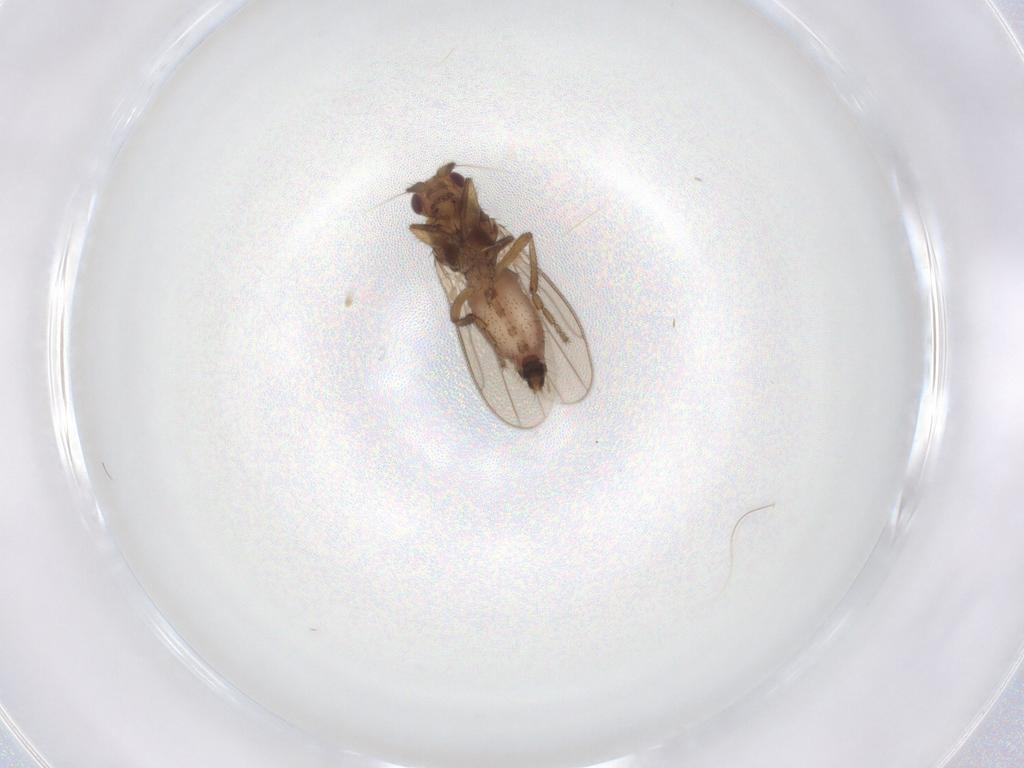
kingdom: Animalia
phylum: Arthropoda
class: Insecta
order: Diptera
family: Sphaeroceridae
